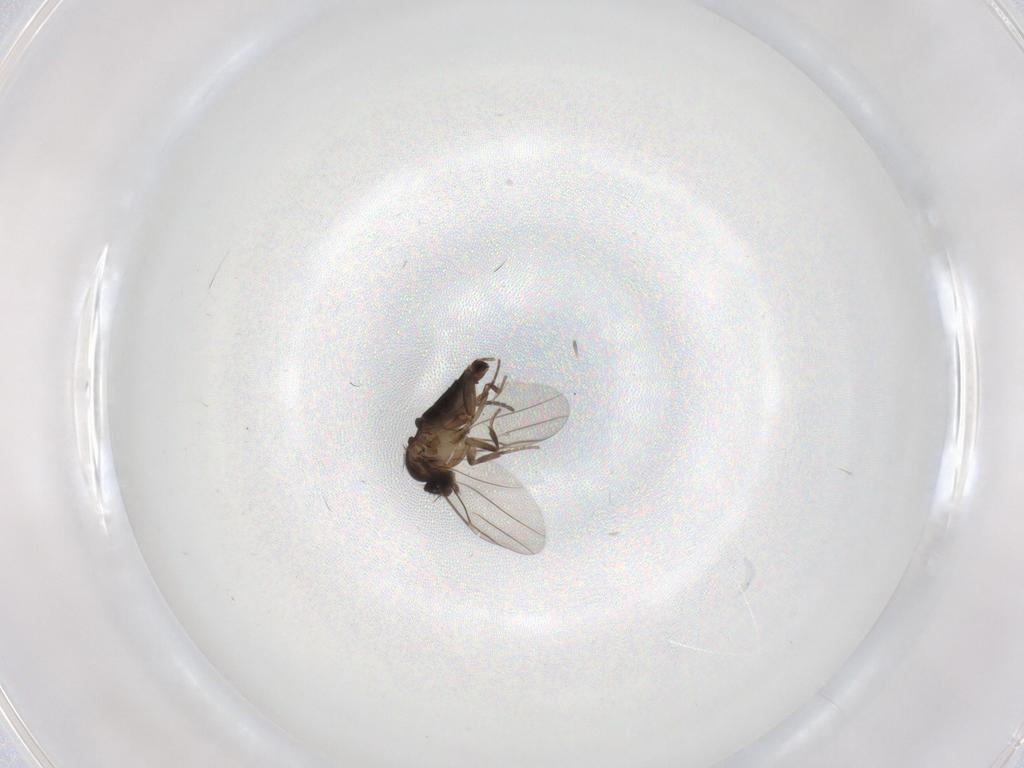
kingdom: Animalia
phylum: Arthropoda
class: Insecta
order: Diptera
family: Phoridae
